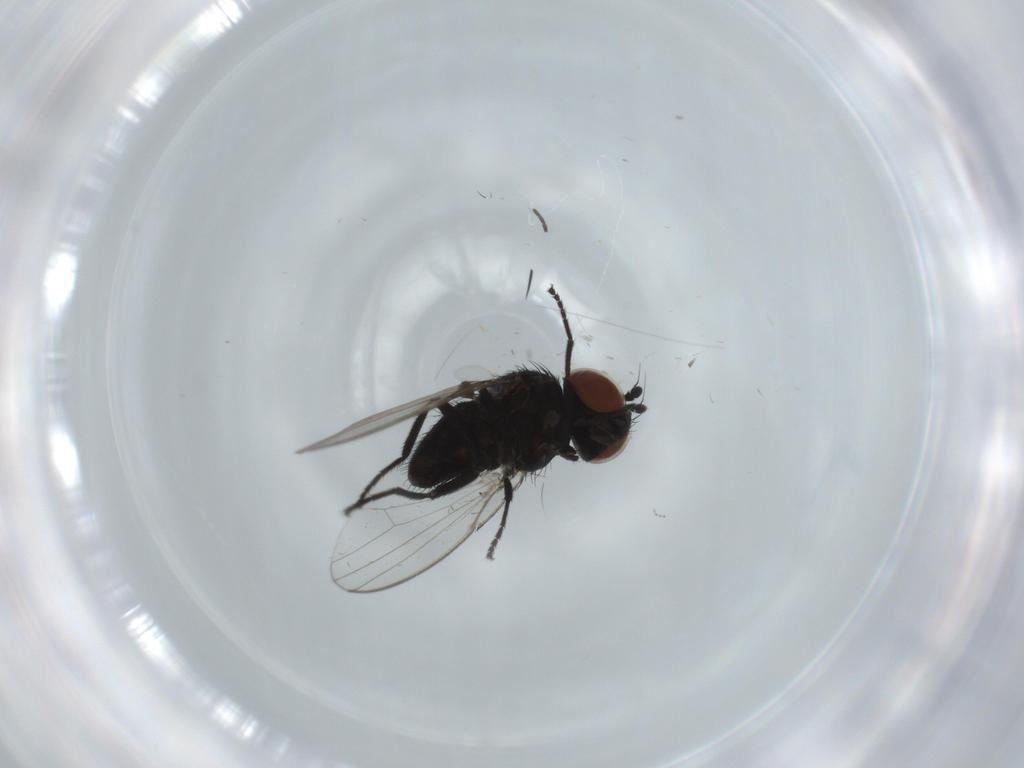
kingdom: Animalia
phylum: Arthropoda
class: Insecta
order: Diptera
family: Milichiidae
